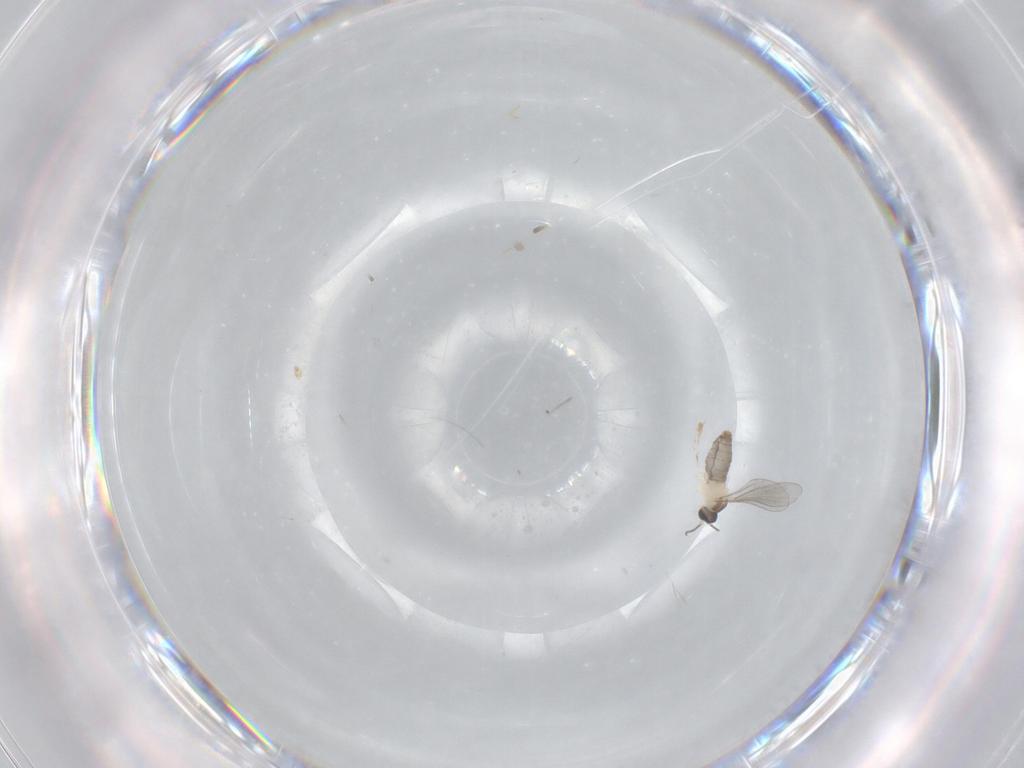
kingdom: Animalia
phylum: Arthropoda
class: Insecta
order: Diptera
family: Cecidomyiidae
